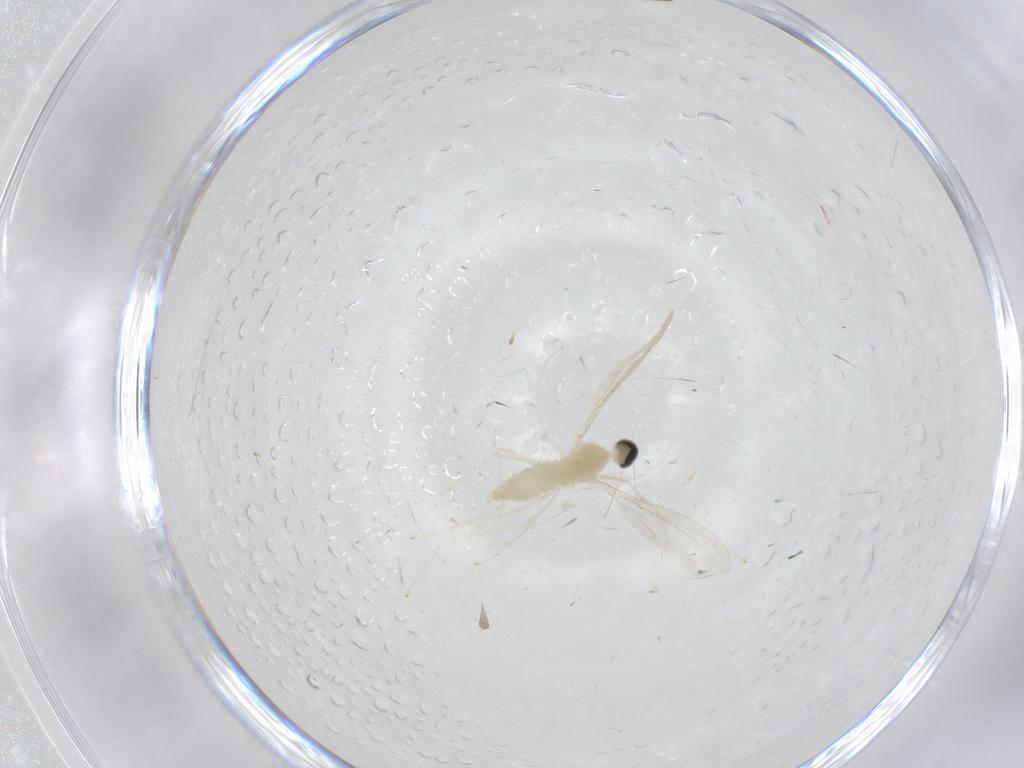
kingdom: Animalia
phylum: Arthropoda
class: Insecta
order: Diptera
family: Cecidomyiidae
